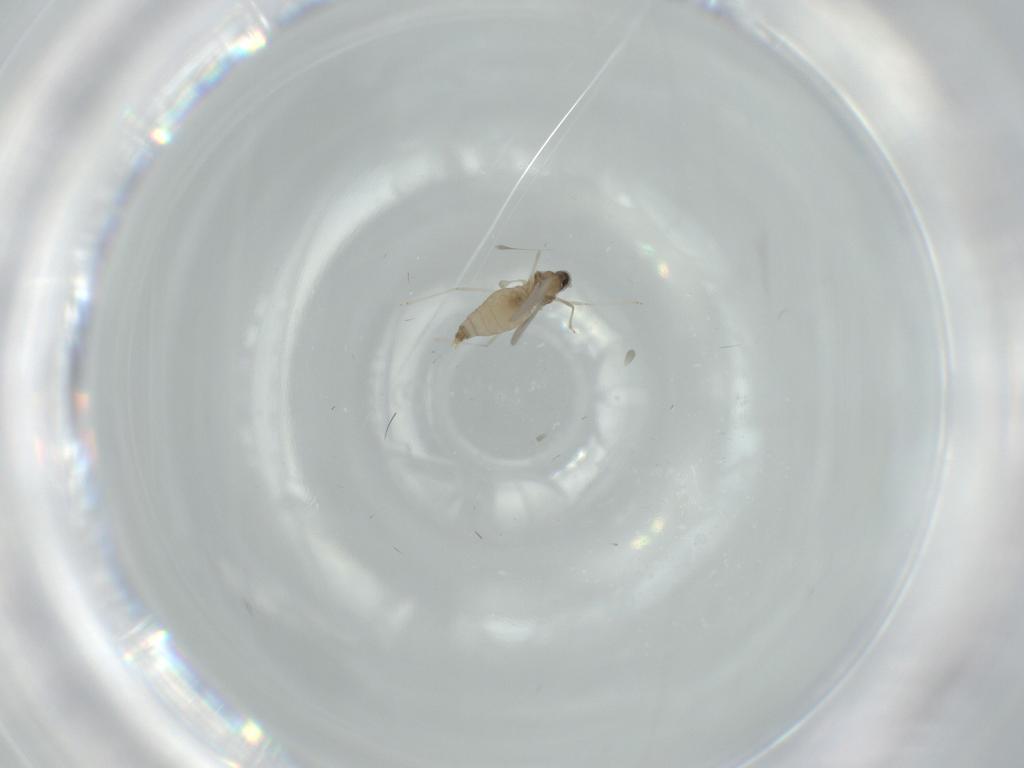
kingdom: Animalia
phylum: Arthropoda
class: Insecta
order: Diptera
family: Cecidomyiidae
